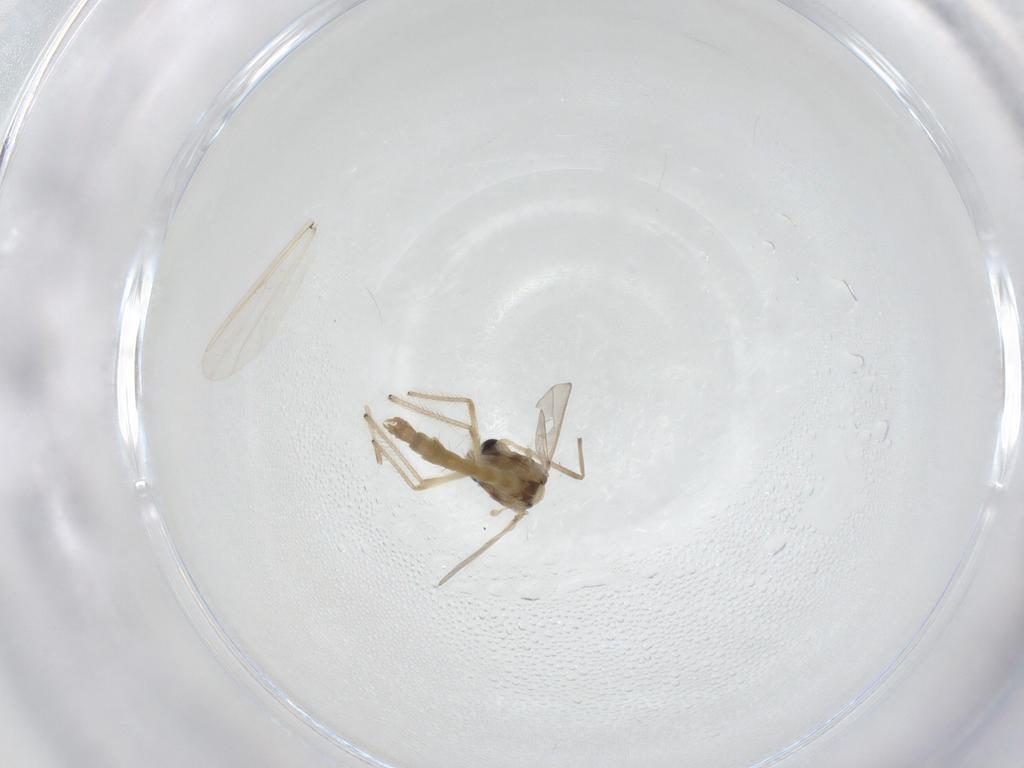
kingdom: Animalia
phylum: Arthropoda
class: Insecta
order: Diptera
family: Chironomidae
